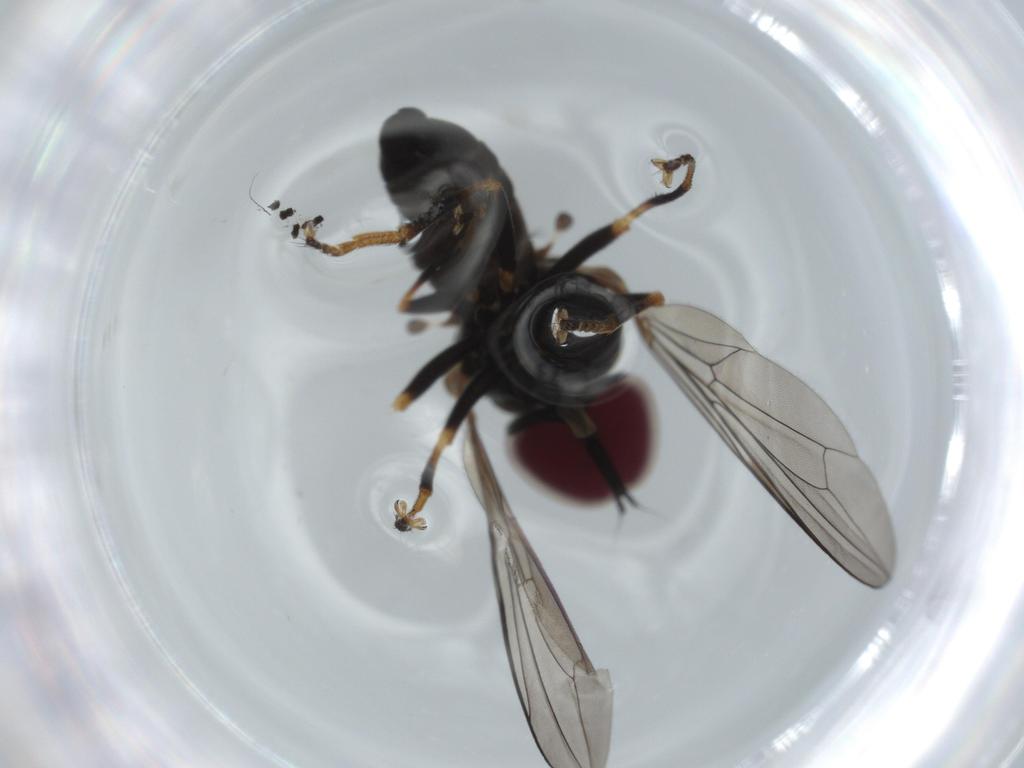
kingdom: Animalia
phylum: Arthropoda
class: Insecta
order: Diptera
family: Pipunculidae
